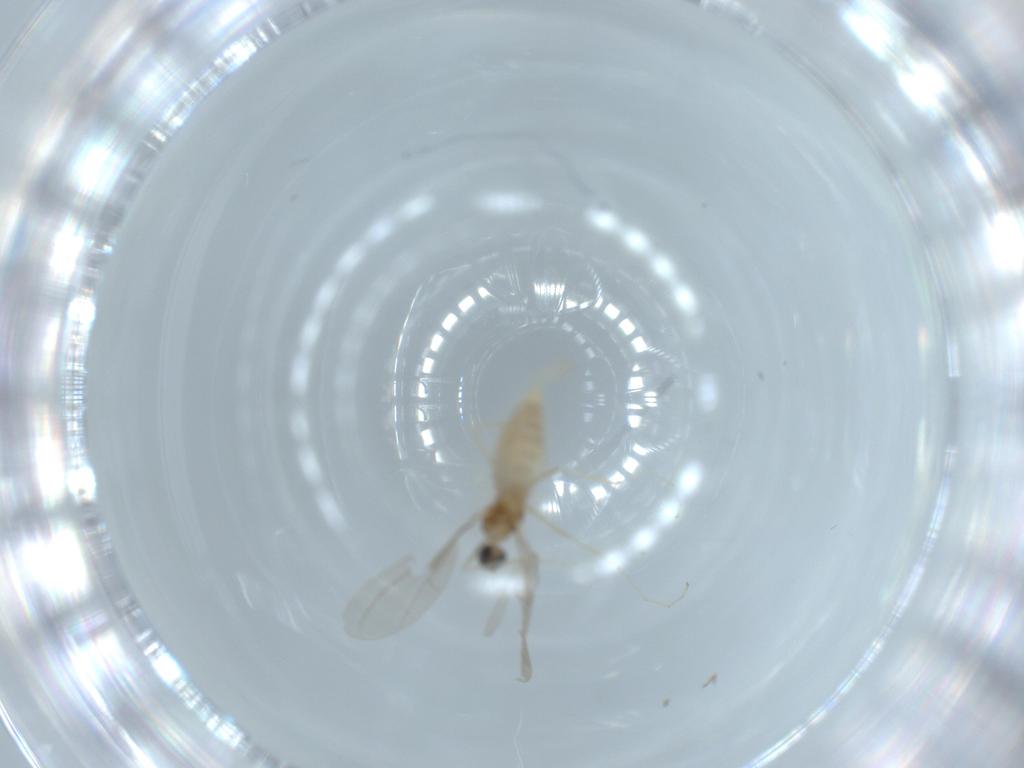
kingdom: Animalia
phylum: Arthropoda
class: Insecta
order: Diptera
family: Cecidomyiidae
